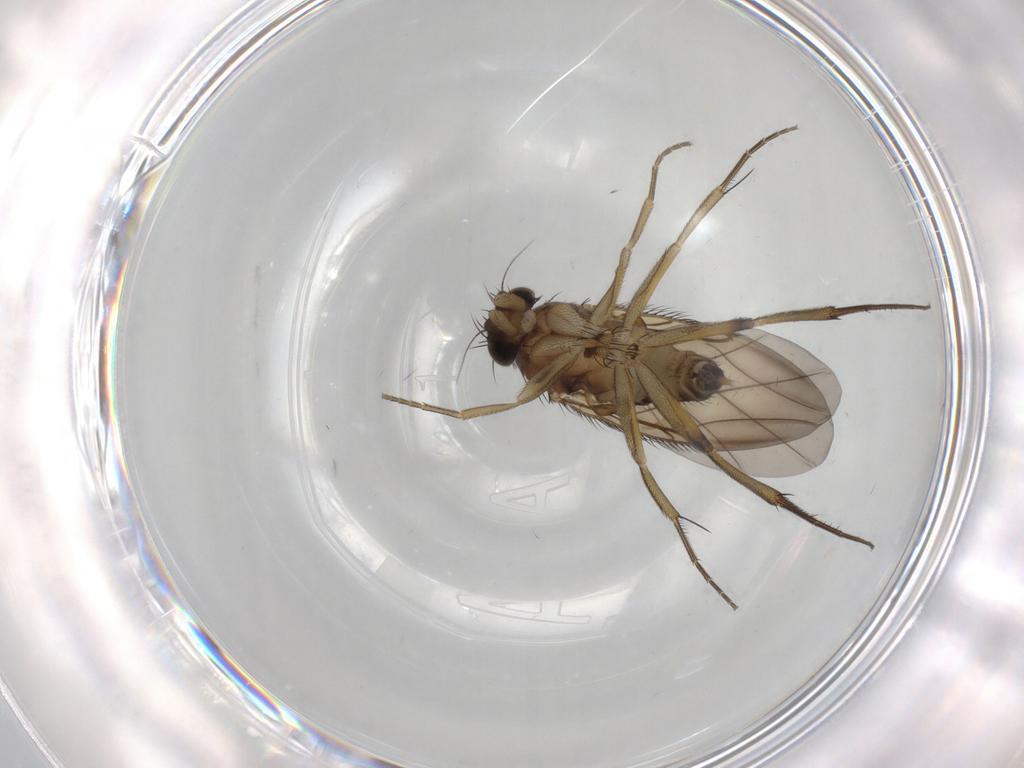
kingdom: Animalia
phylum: Arthropoda
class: Insecta
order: Diptera
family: Phoridae
